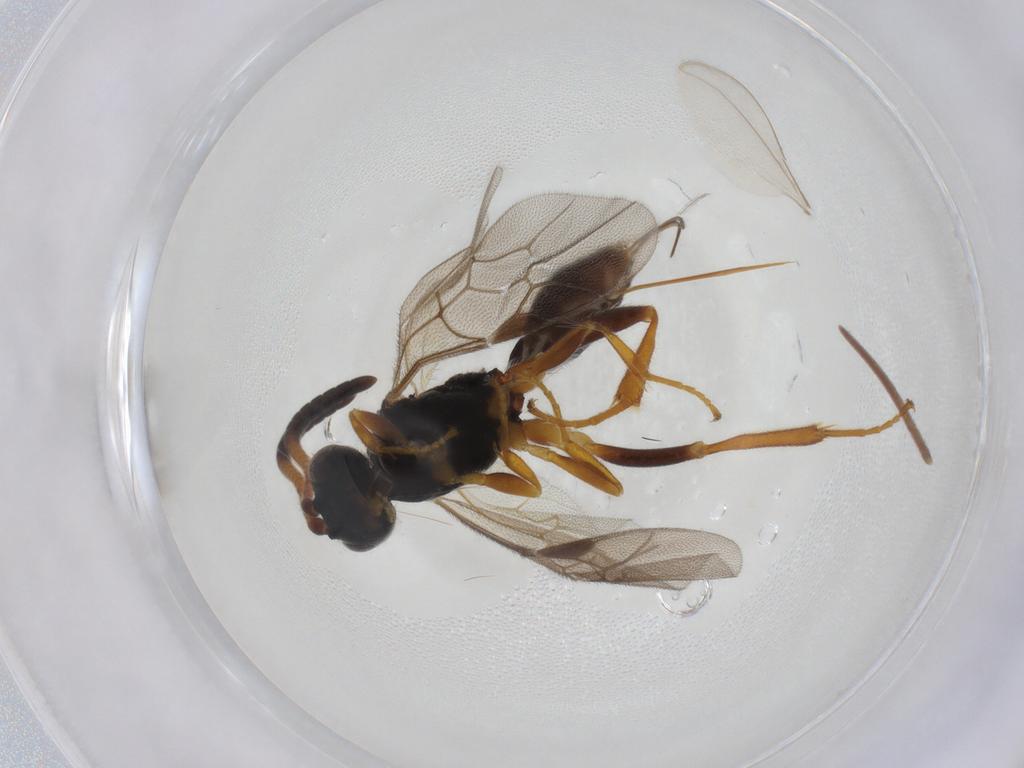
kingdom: Animalia
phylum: Arthropoda
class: Insecta
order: Hymenoptera
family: Ichneumonidae
